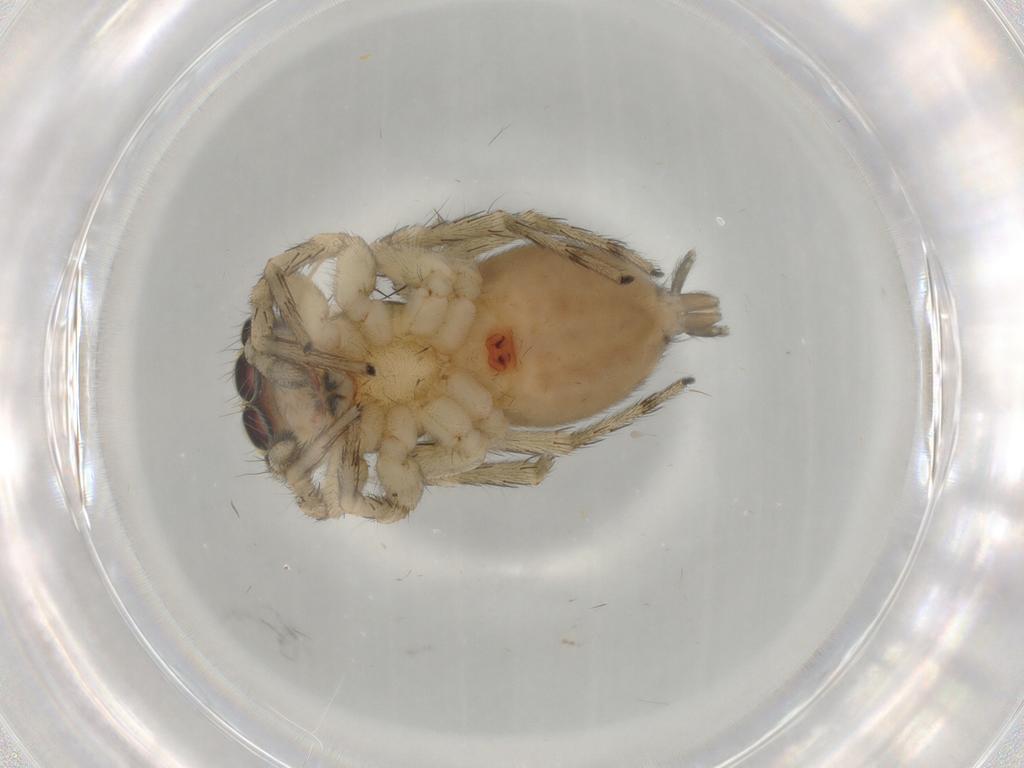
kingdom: Animalia
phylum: Arthropoda
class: Arachnida
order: Araneae
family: Salticidae
